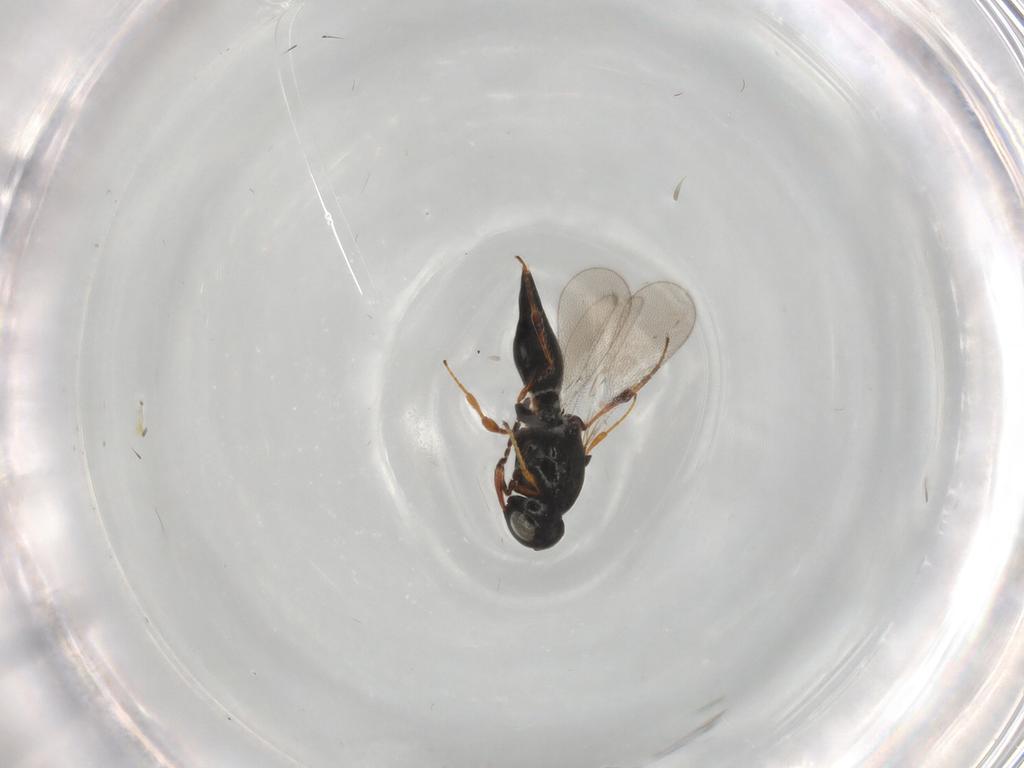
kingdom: Animalia
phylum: Arthropoda
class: Insecta
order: Hymenoptera
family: Platygastridae
